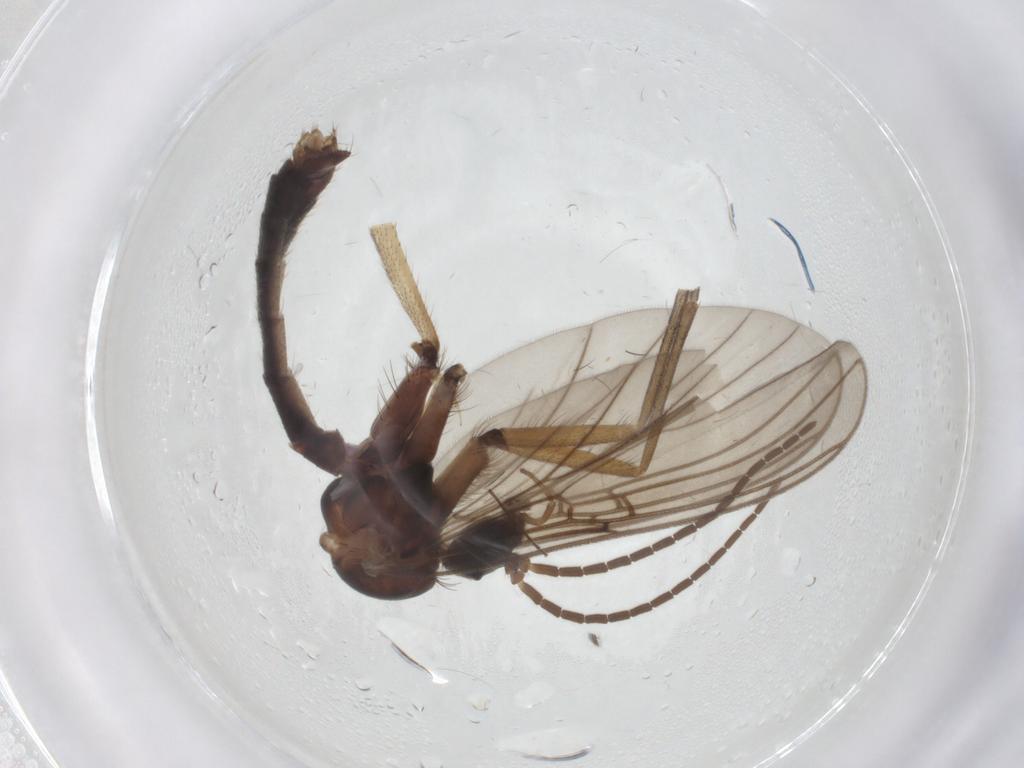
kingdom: Animalia
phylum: Arthropoda
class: Insecta
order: Diptera
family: Mycetophilidae
